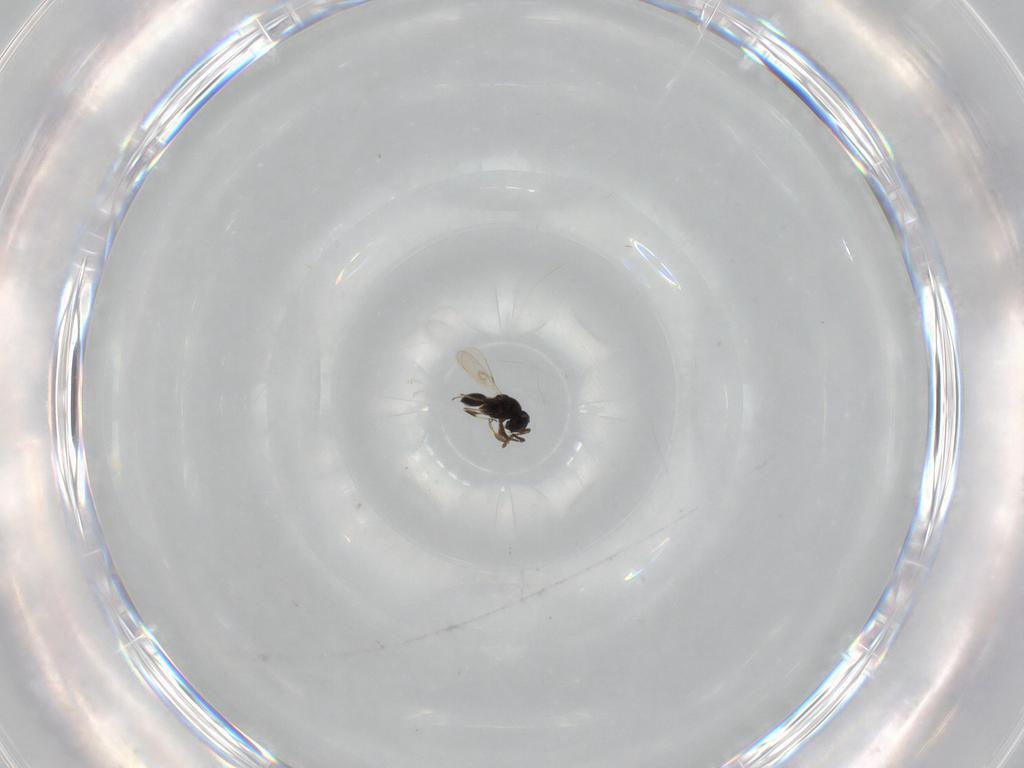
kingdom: Animalia
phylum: Arthropoda
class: Insecta
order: Hymenoptera
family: Scelionidae
